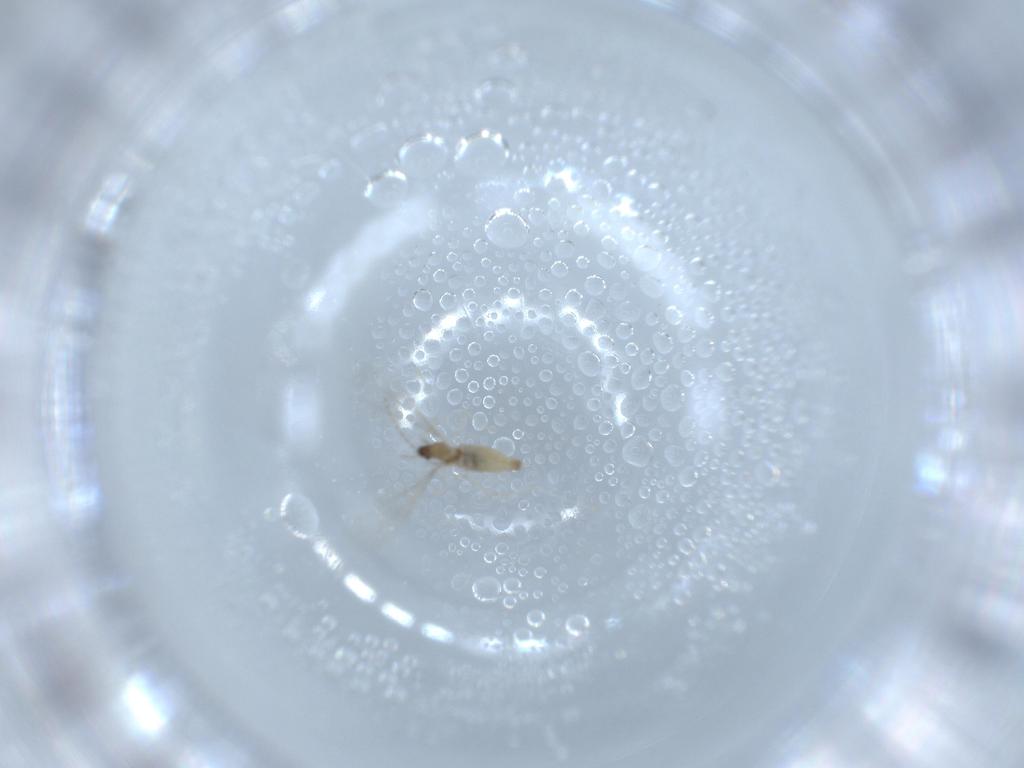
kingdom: Animalia
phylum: Arthropoda
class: Insecta
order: Diptera
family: Cecidomyiidae
